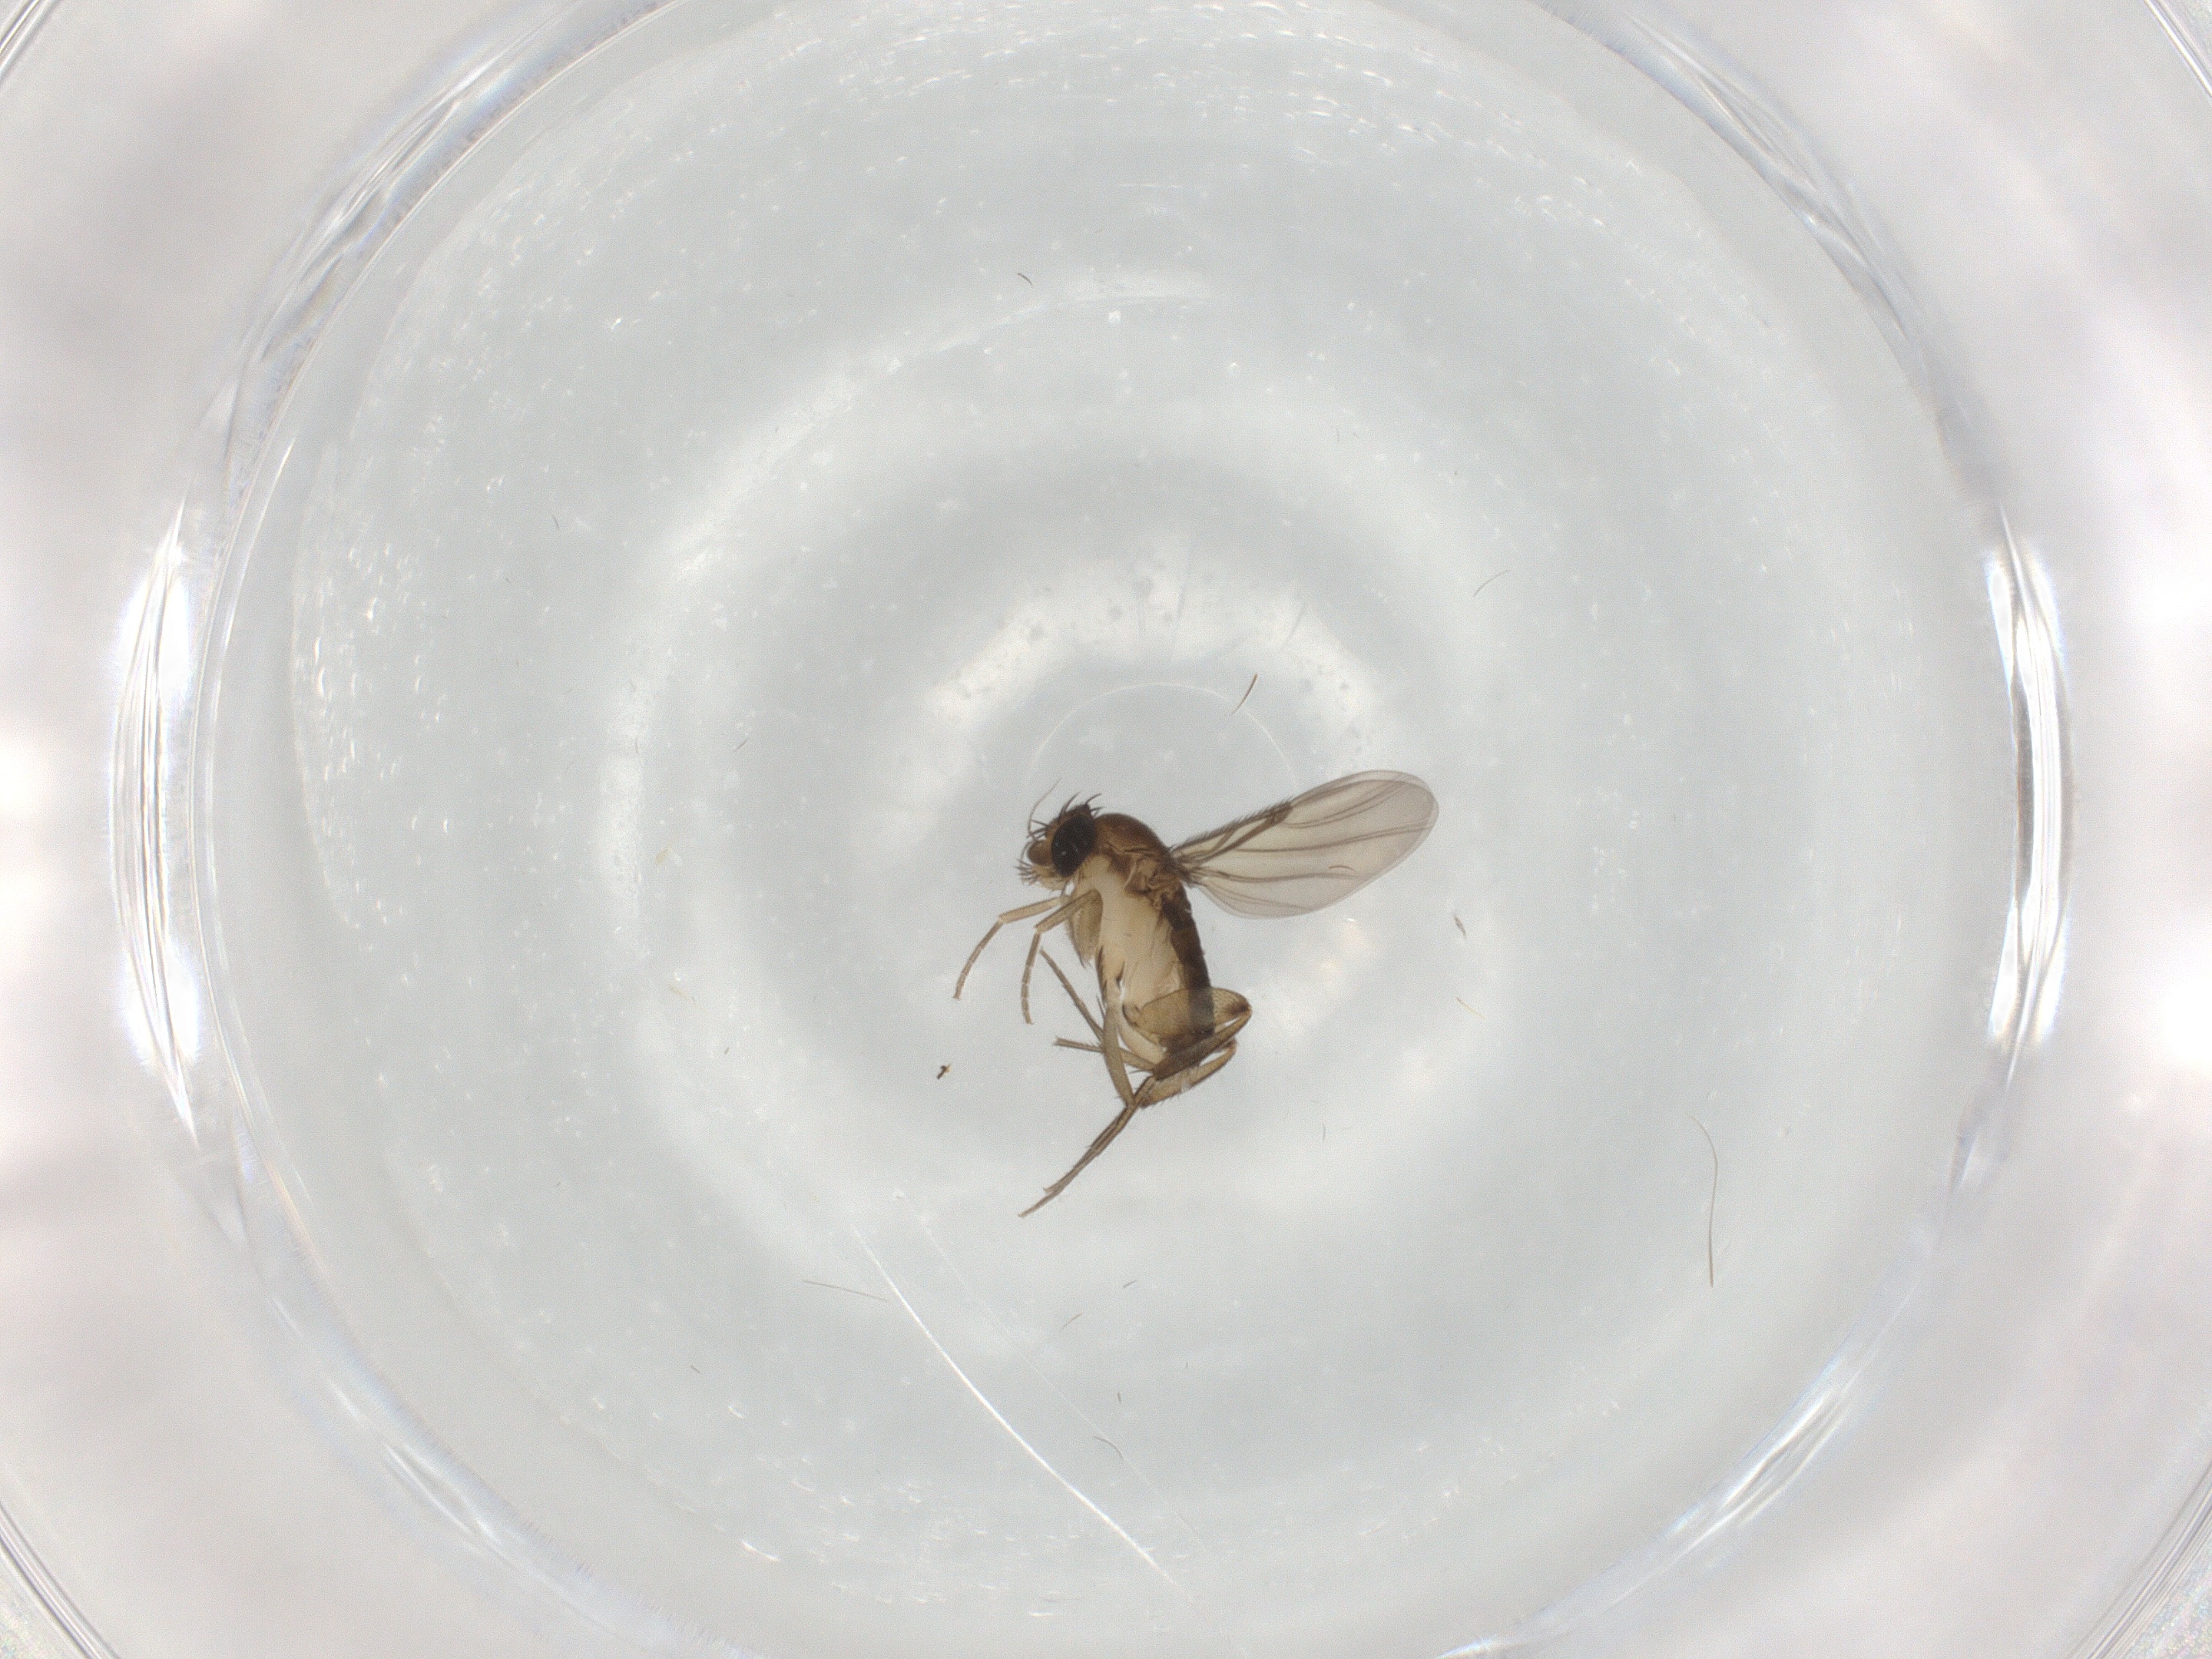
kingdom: Animalia
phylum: Arthropoda
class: Insecta
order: Diptera
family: Phoridae
